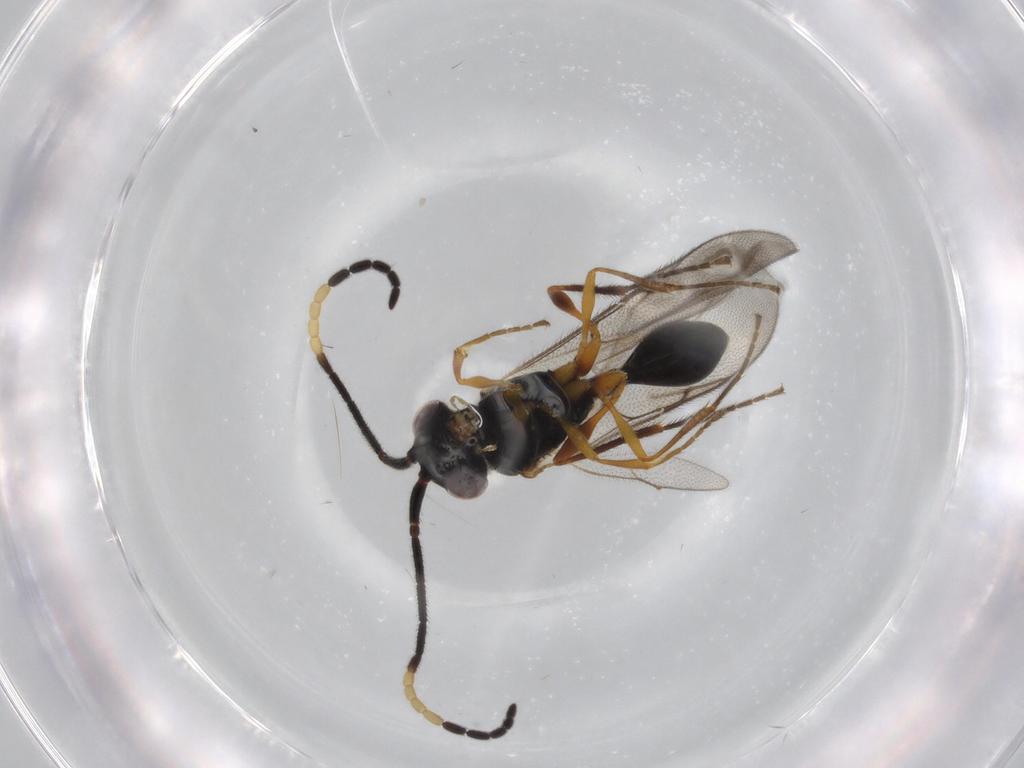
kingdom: Animalia
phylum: Arthropoda
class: Insecta
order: Hymenoptera
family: Diapriidae
